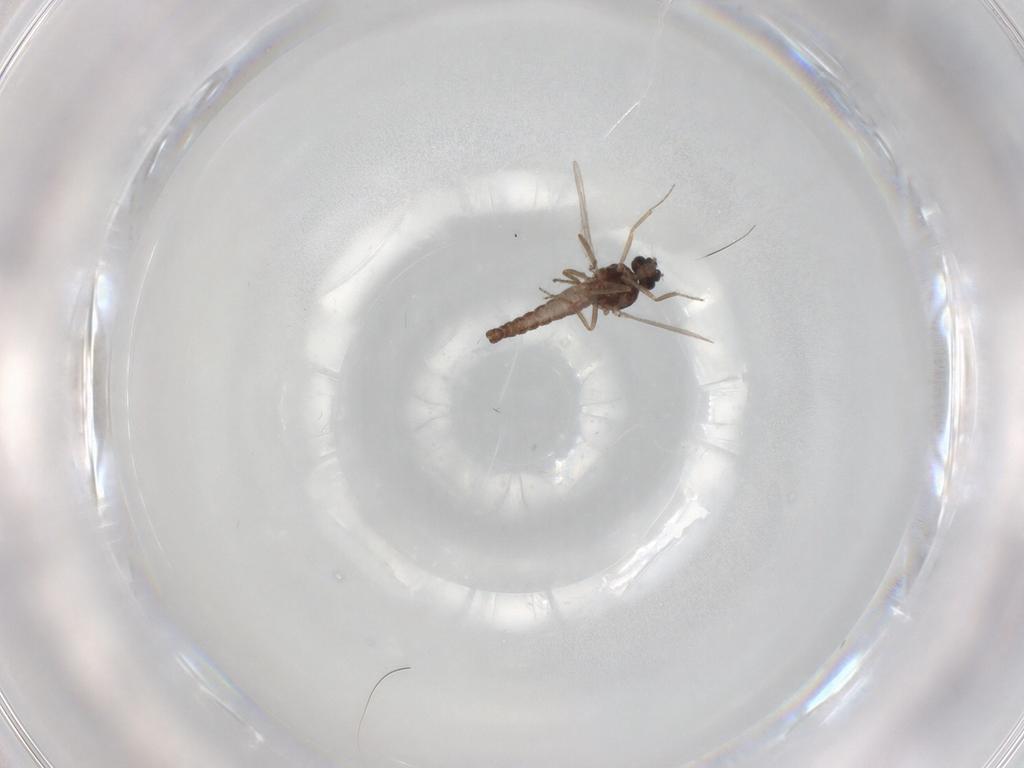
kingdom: Animalia
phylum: Arthropoda
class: Insecta
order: Diptera
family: Ceratopogonidae
